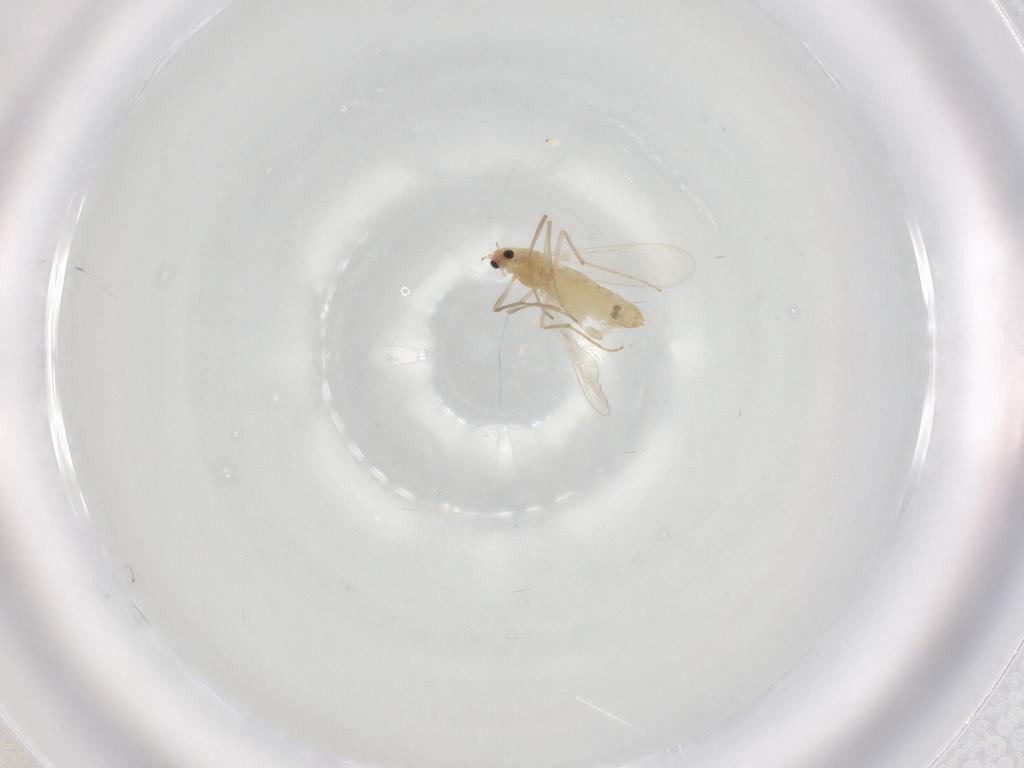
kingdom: Animalia
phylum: Arthropoda
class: Insecta
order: Diptera
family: Chironomidae
